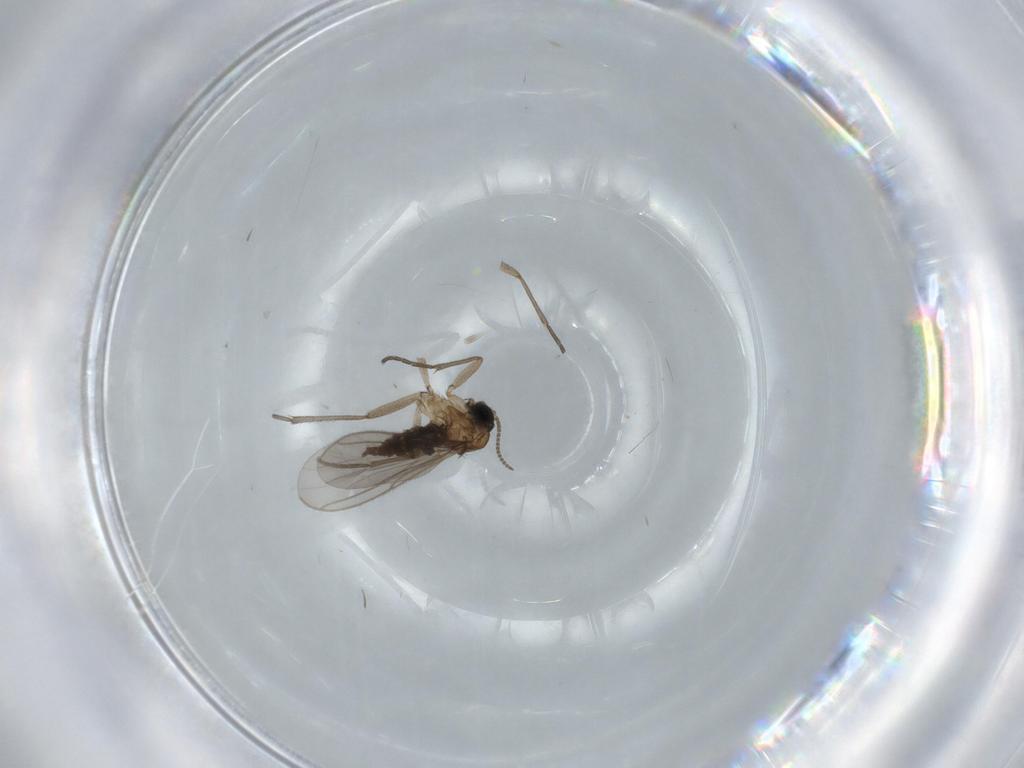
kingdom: Animalia
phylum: Arthropoda
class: Insecta
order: Diptera
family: Sciaridae
